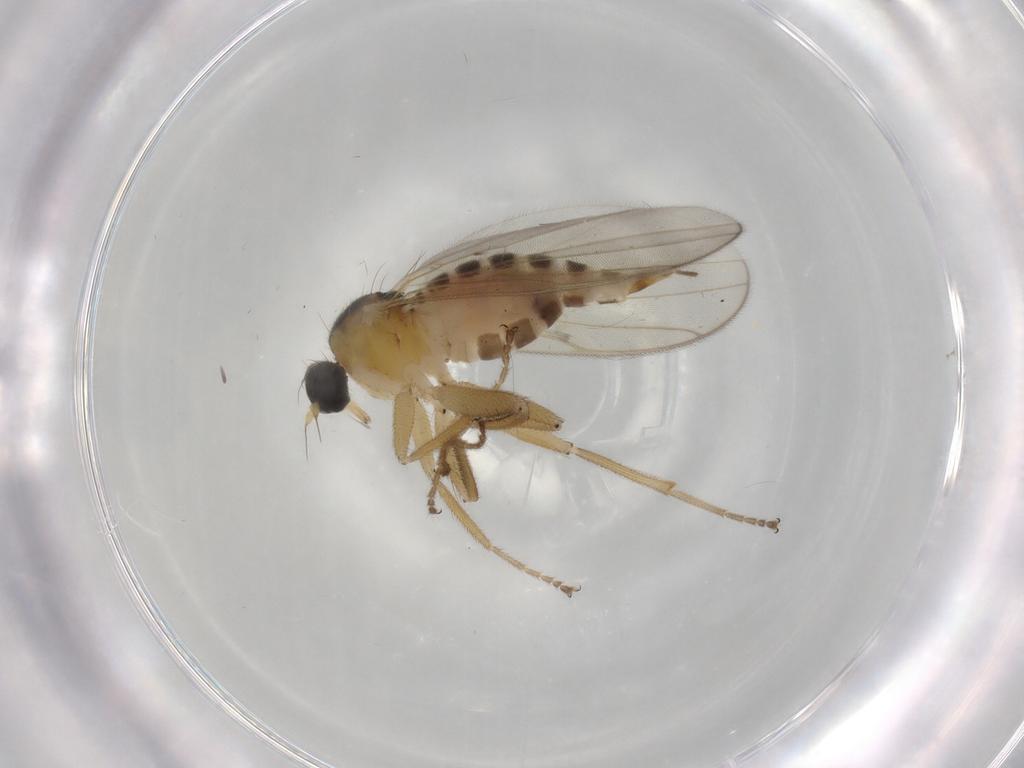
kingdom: Animalia
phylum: Arthropoda
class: Insecta
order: Diptera
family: Hybotidae
